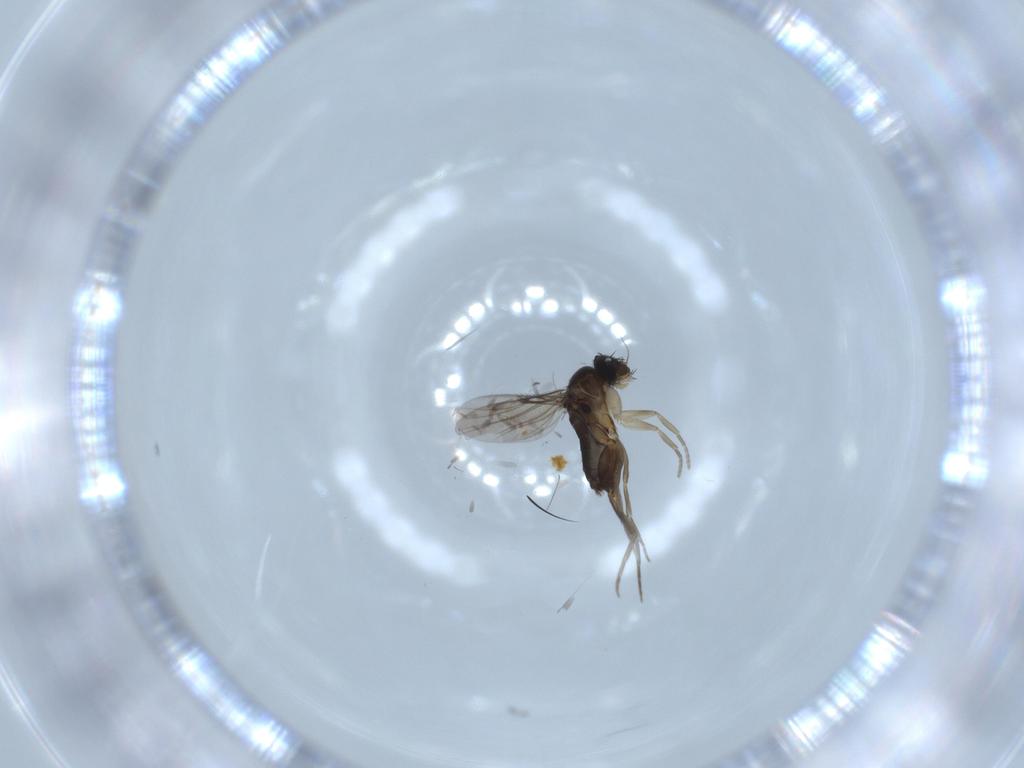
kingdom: Animalia
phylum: Arthropoda
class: Insecta
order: Diptera
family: Phoridae
